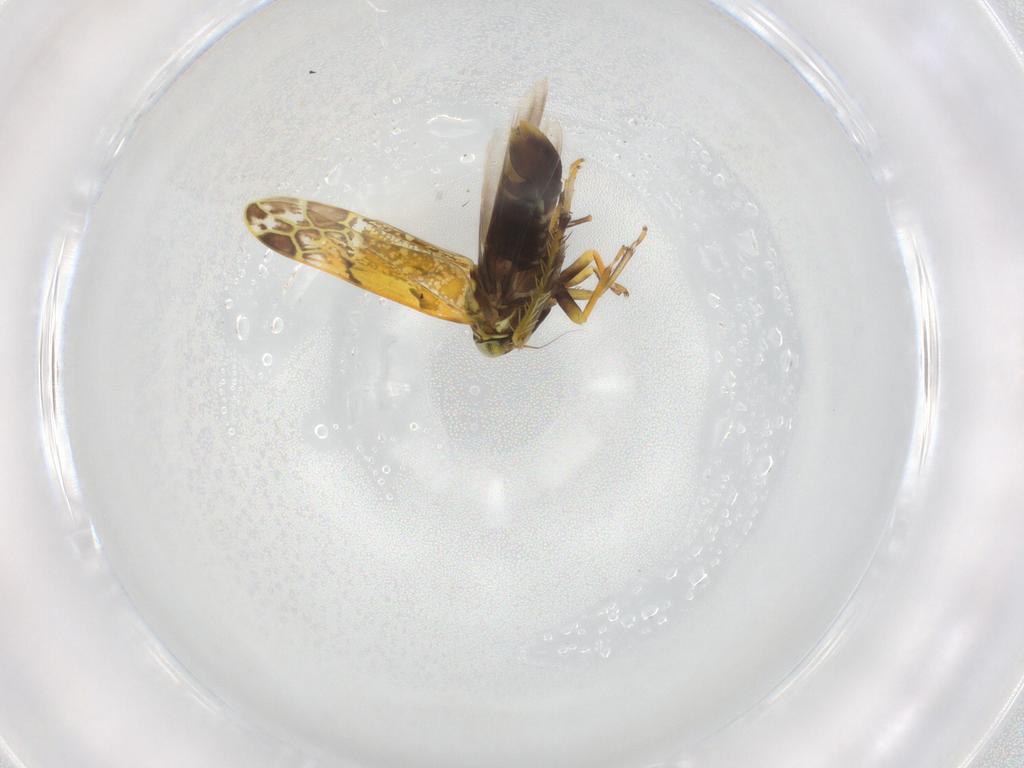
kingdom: Animalia
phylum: Arthropoda
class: Insecta
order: Hemiptera
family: Cicadellidae
